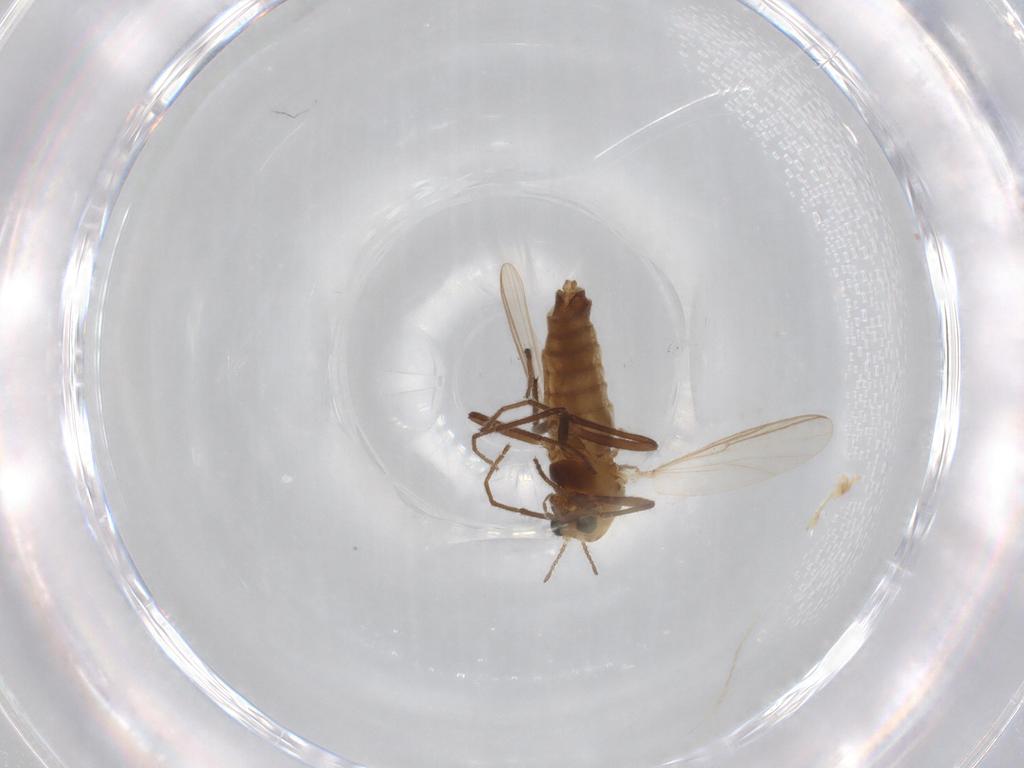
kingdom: Animalia
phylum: Arthropoda
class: Insecta
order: Diptera
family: Chironomidae
